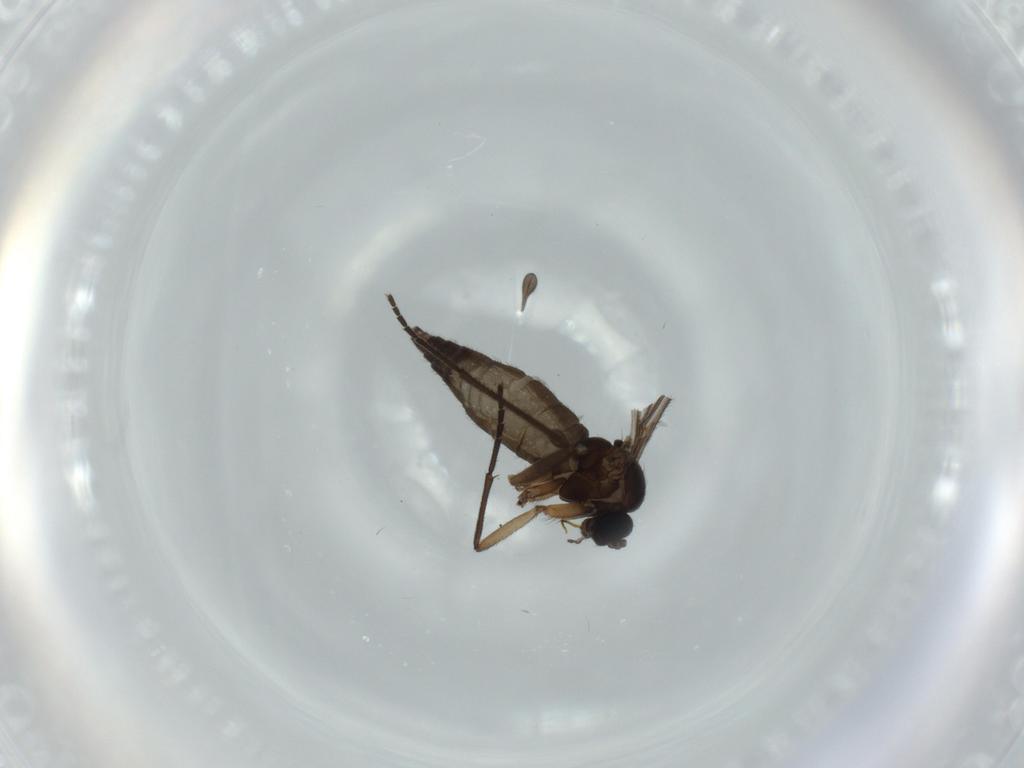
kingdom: Animalia
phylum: Arthropoda
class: Insecta
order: Diptera
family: Sciaridae
